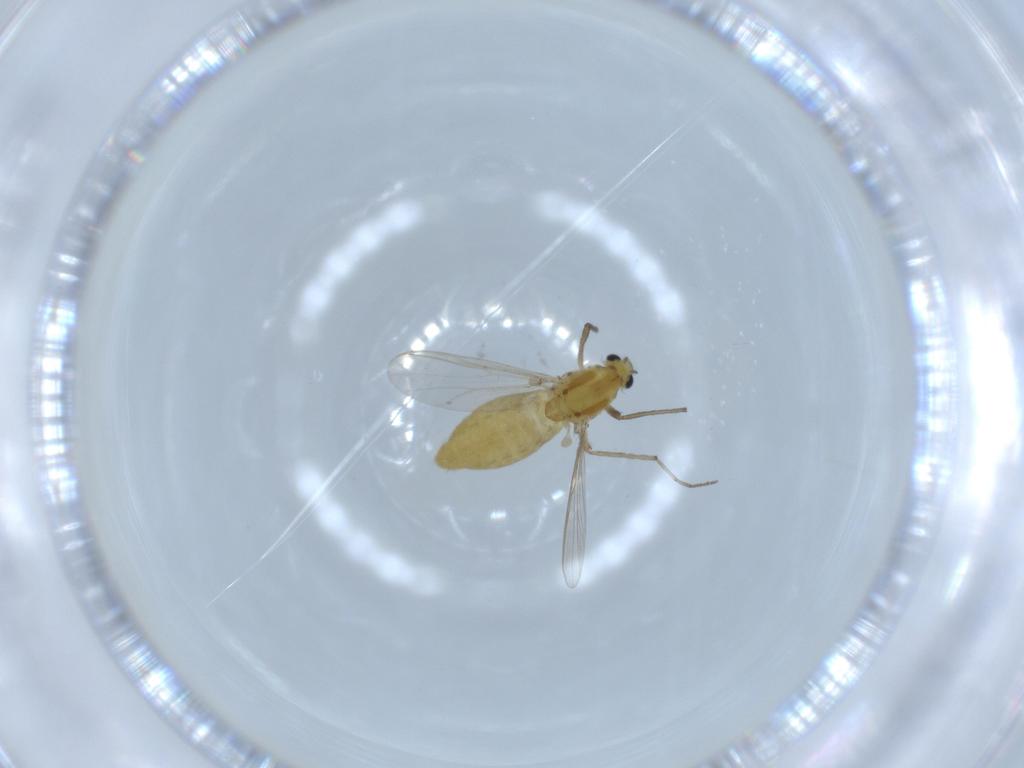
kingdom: Animalia
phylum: Arthropoda
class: Insecta
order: Diptera
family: Chironomidae
